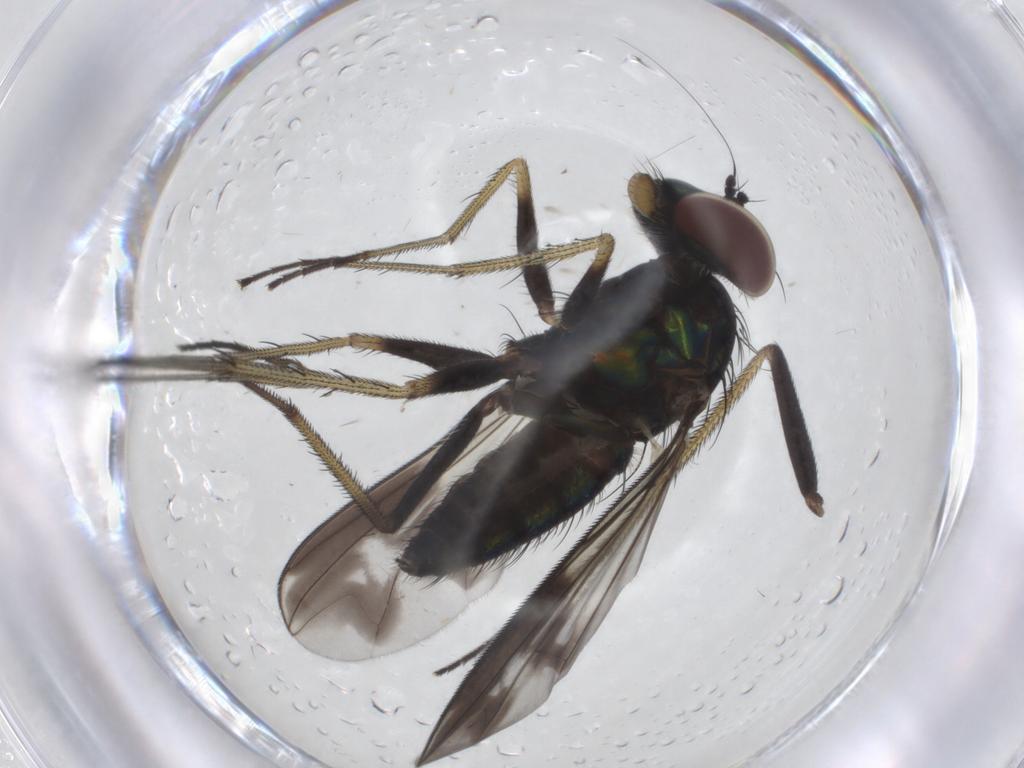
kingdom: Animalia
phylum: Arthropoda
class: Insecta
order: Diptera
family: Dolichopodidae
